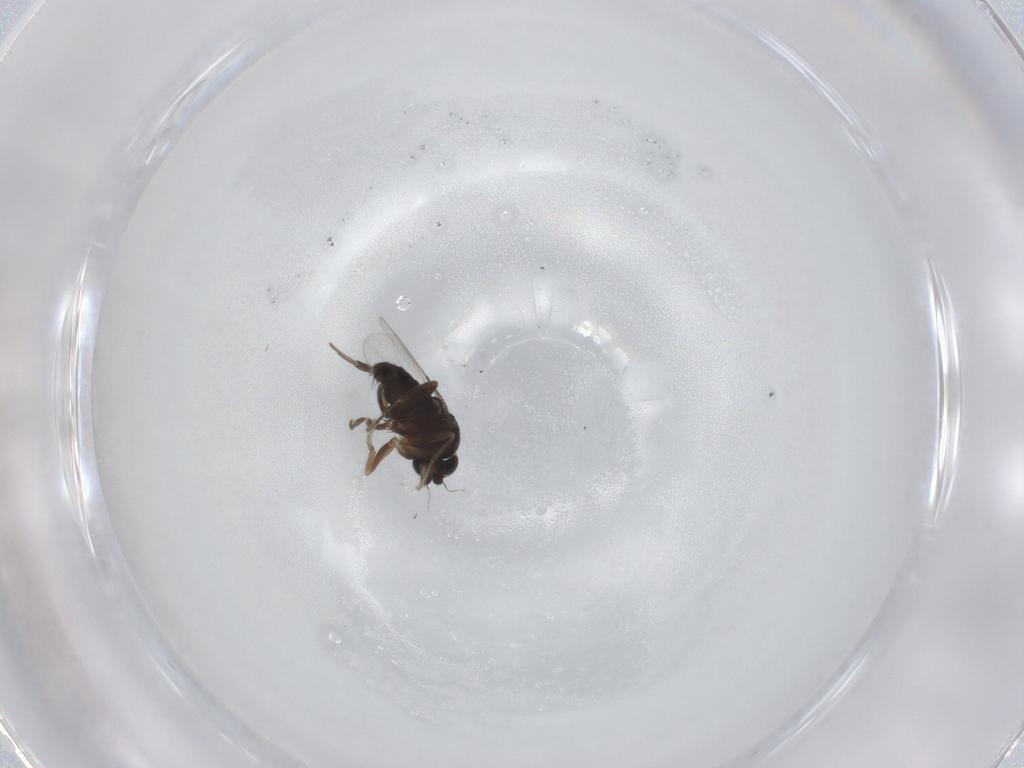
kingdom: Animalia
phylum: Arthropoda
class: Insecta
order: Diptera
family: Phoridae
